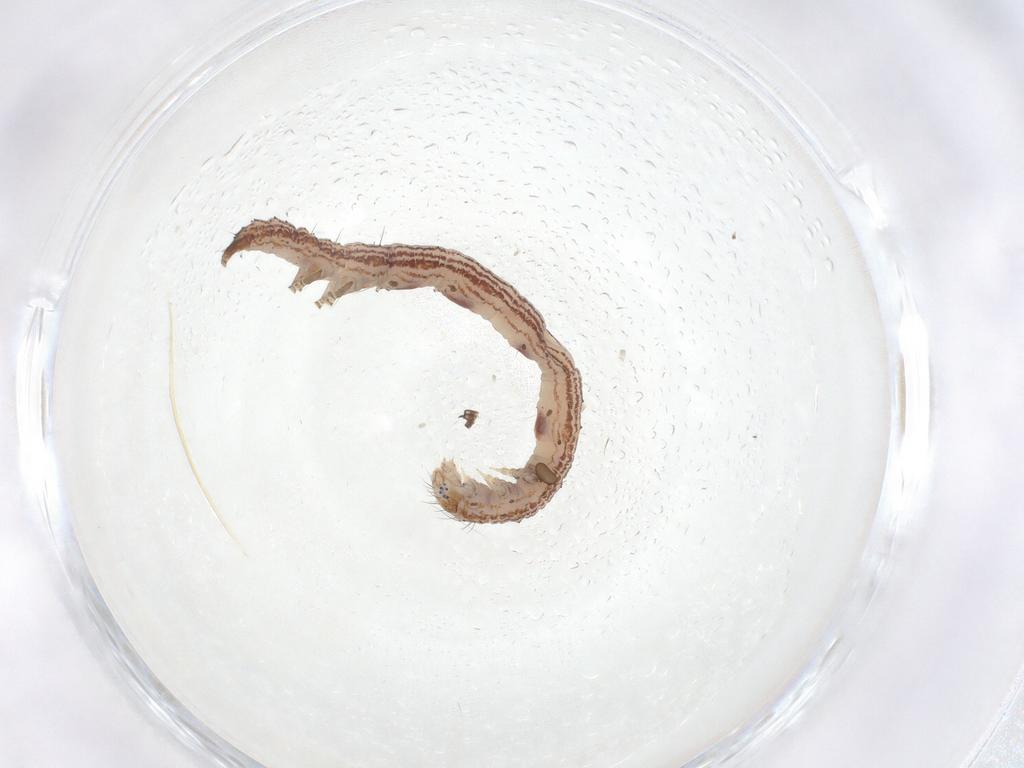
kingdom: Animalia
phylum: Arthropoda
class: Insecta
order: Lepidoptera
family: Erebidae
